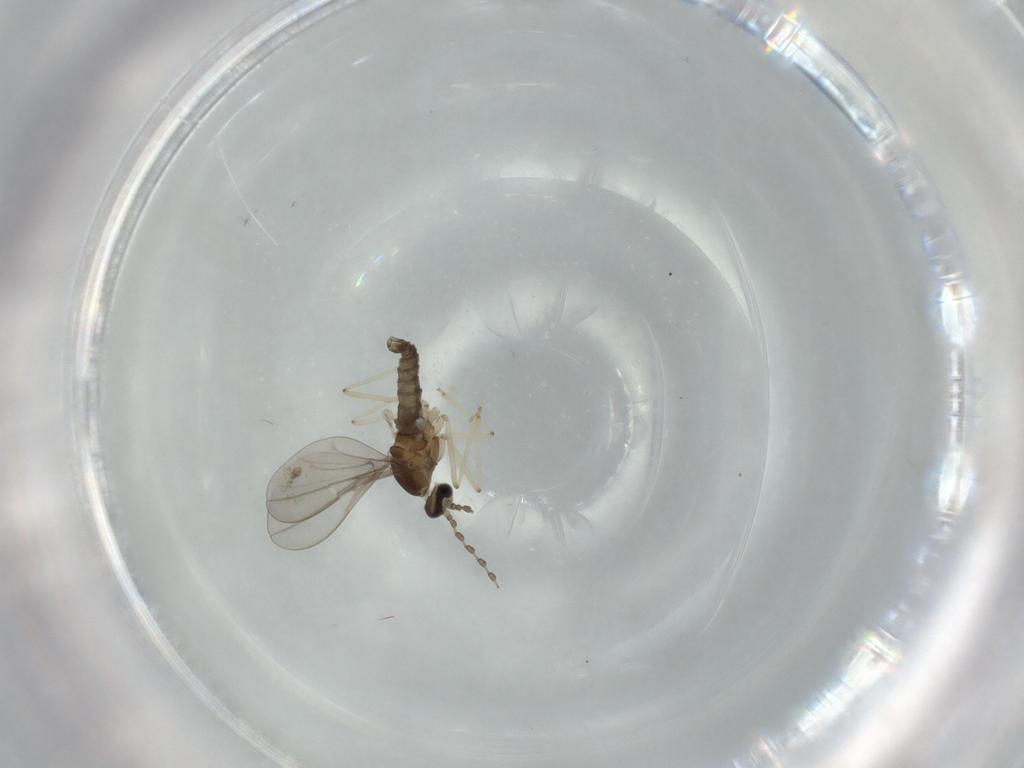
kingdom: Animalia
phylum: Arthropoda
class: Insecta
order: Diptera
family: Cecidomyiidae
